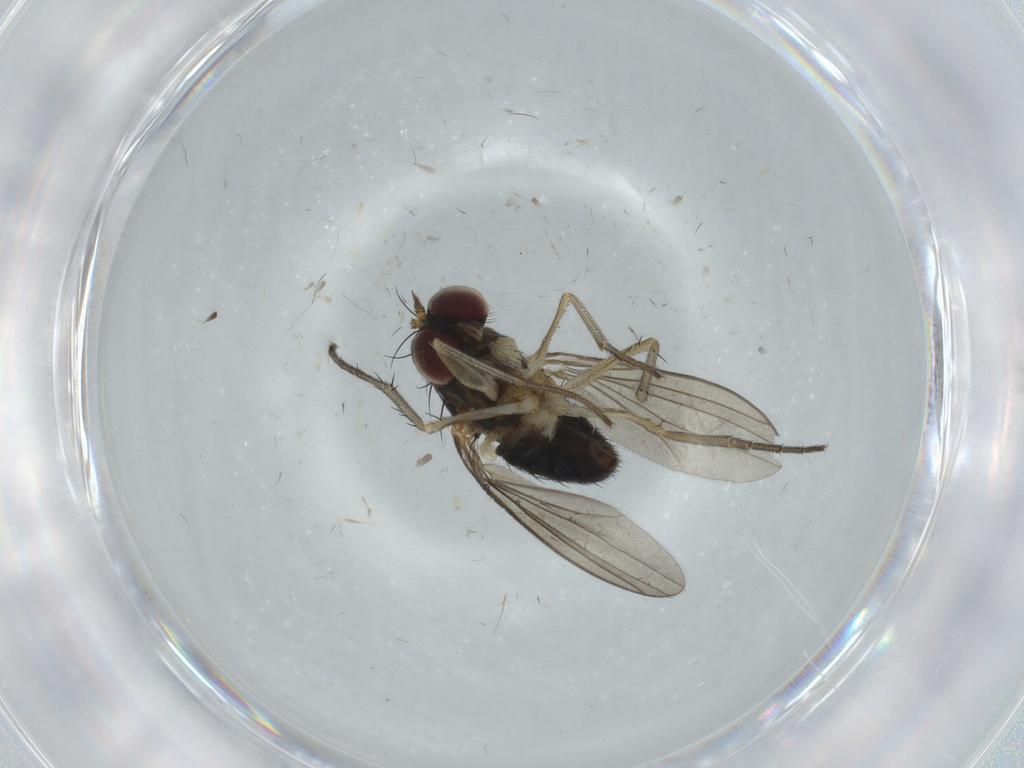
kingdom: Animalia
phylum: Arthropoda
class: Insecta
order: Diptera
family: Dolichopodidae
